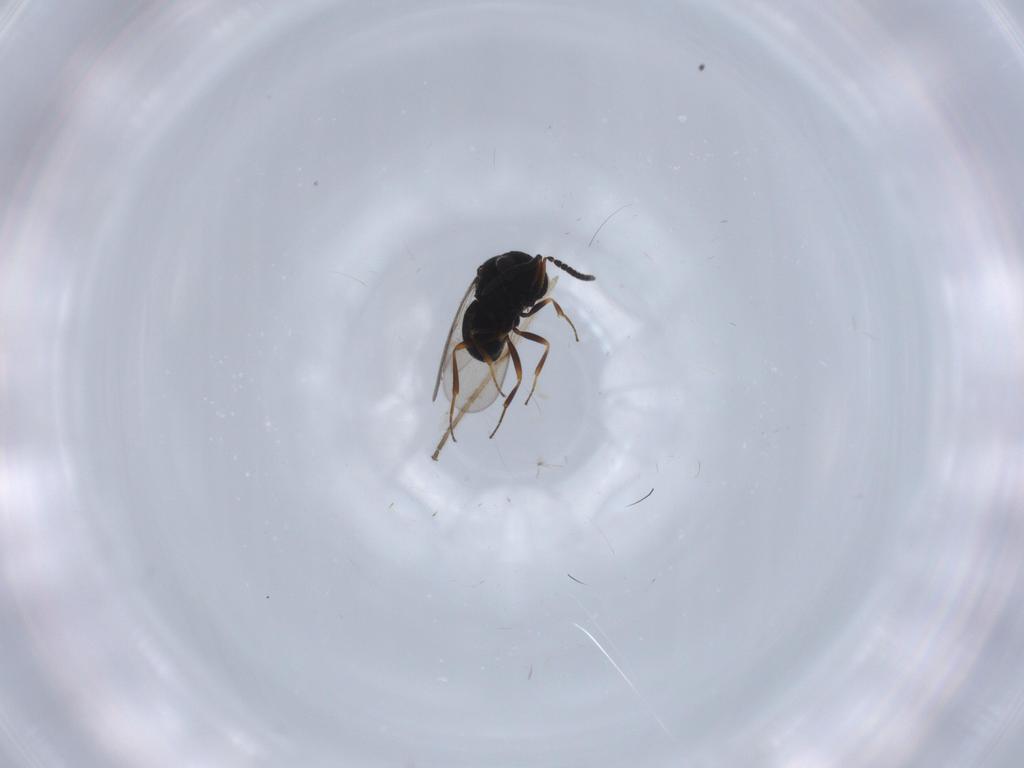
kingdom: Animalia
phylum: Arthropoda
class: Insecta
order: Hymenoptera
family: Scelionidae
